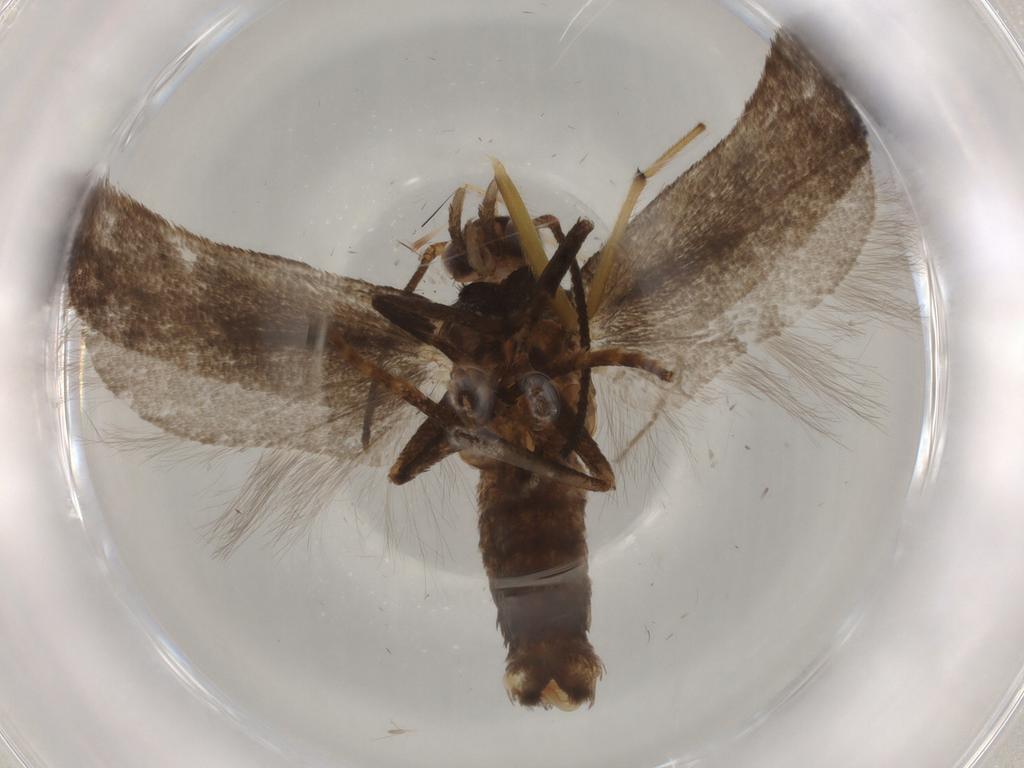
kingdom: Animalia
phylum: Arthropoda
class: Insecta
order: Lepidoptera
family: Gelechiidae
